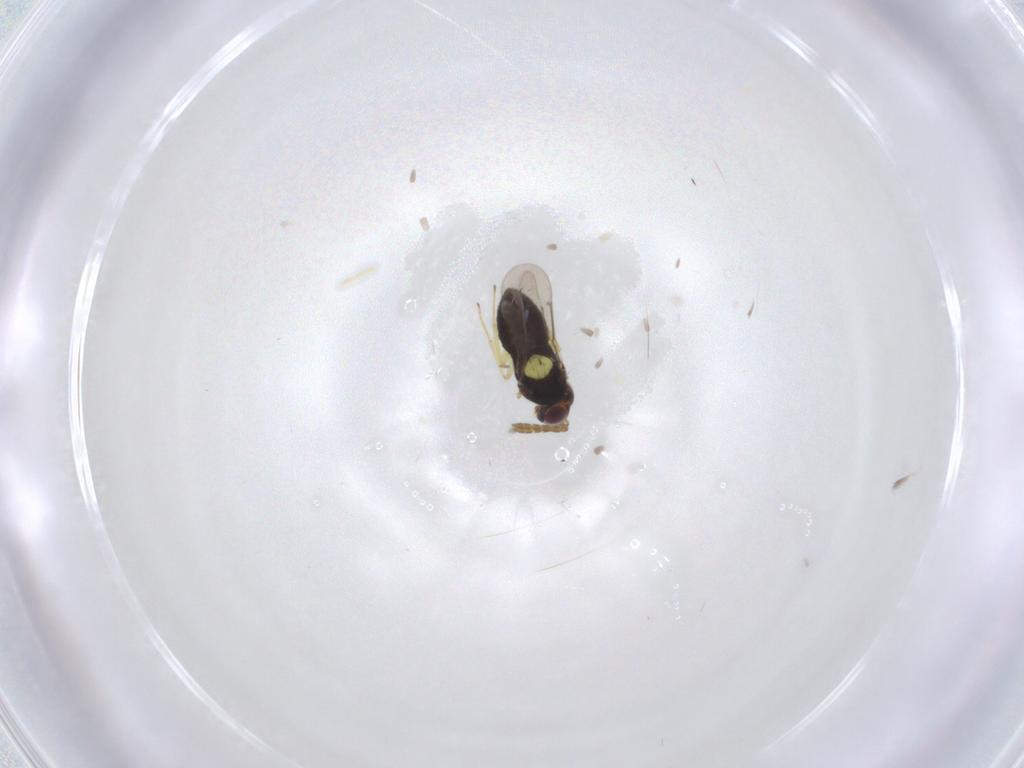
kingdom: Animalia
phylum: Arthropoda
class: Insecta
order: Hymenoptera
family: Aphelinidae
